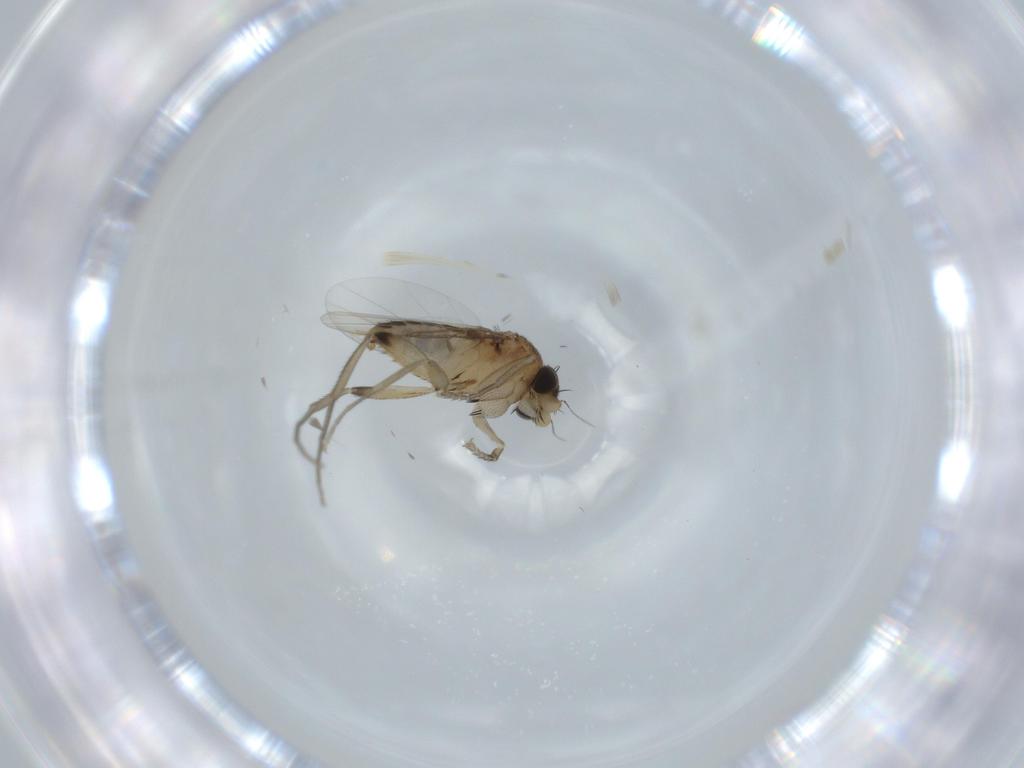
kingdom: Animalia
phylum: Arthropoda
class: Insecta
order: Diptera
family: Phoridae
